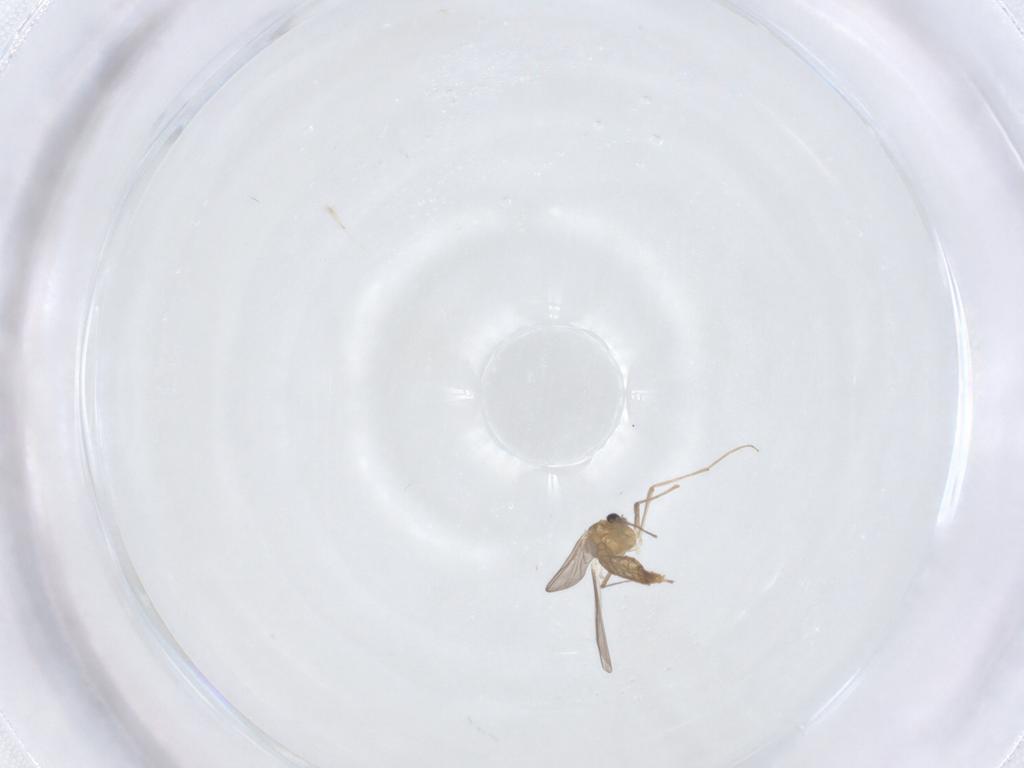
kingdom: Animalia
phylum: Arthropoda
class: Insecta
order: Diptera
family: Chironomidae
